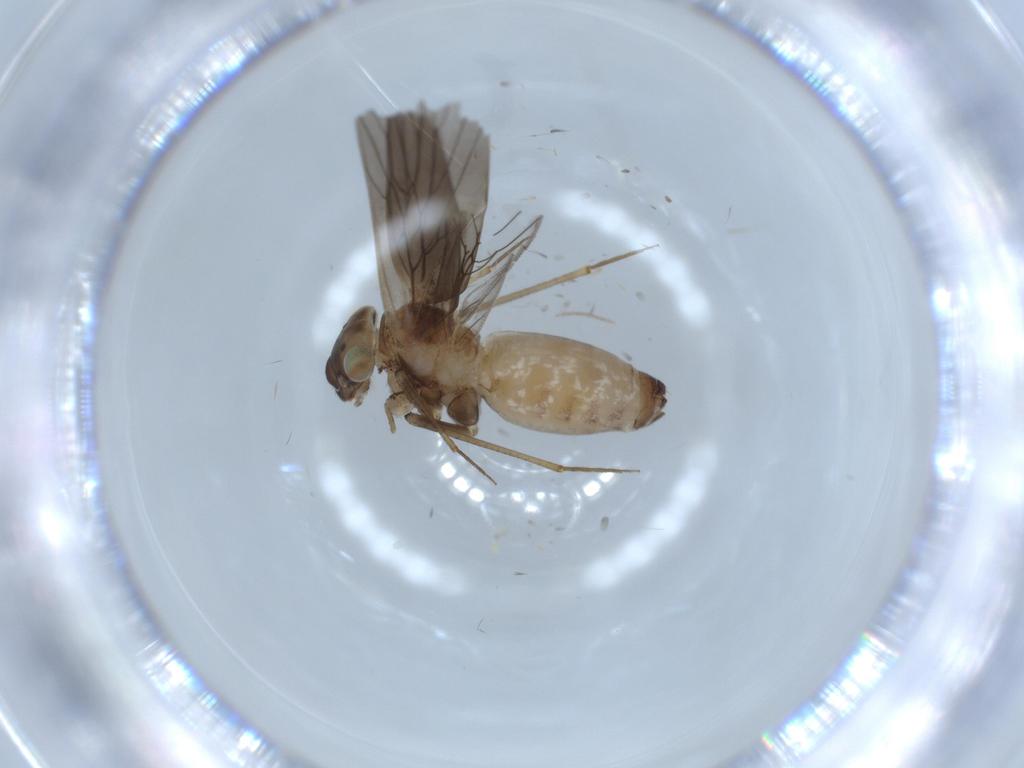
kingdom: Animalia
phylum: Arthropoda
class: Insecta
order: Psocodea
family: Lepidopsocidae
